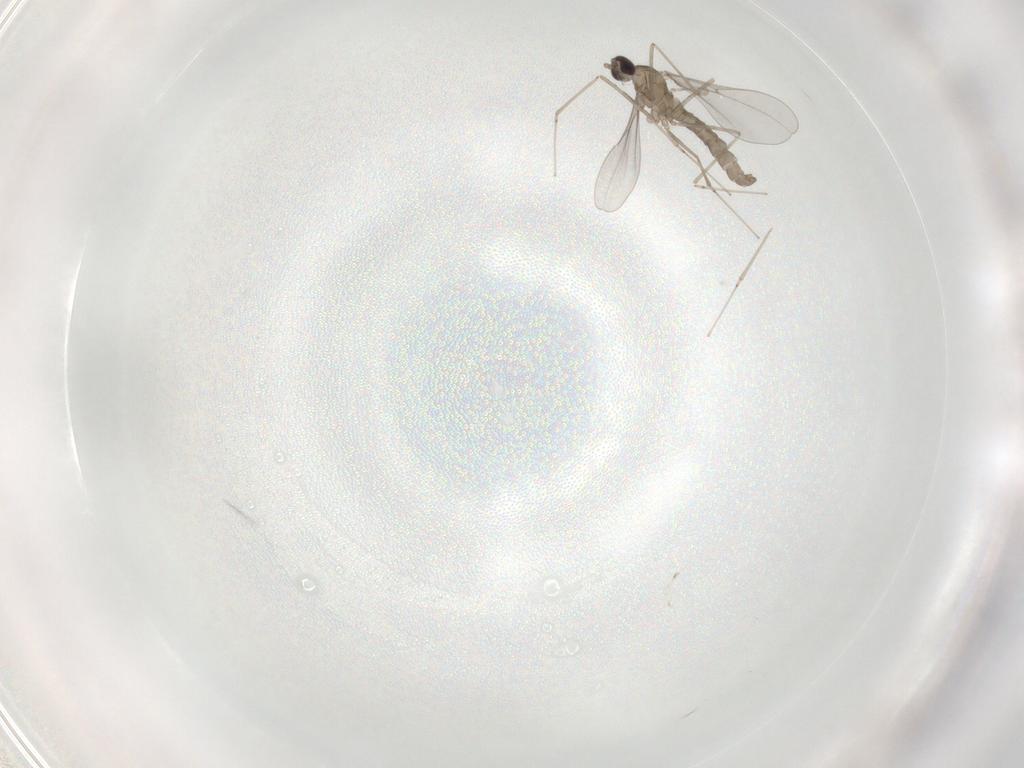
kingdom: Animalia
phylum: Arthropoda
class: Insecta
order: Diptera
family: Cecidomyiidae
